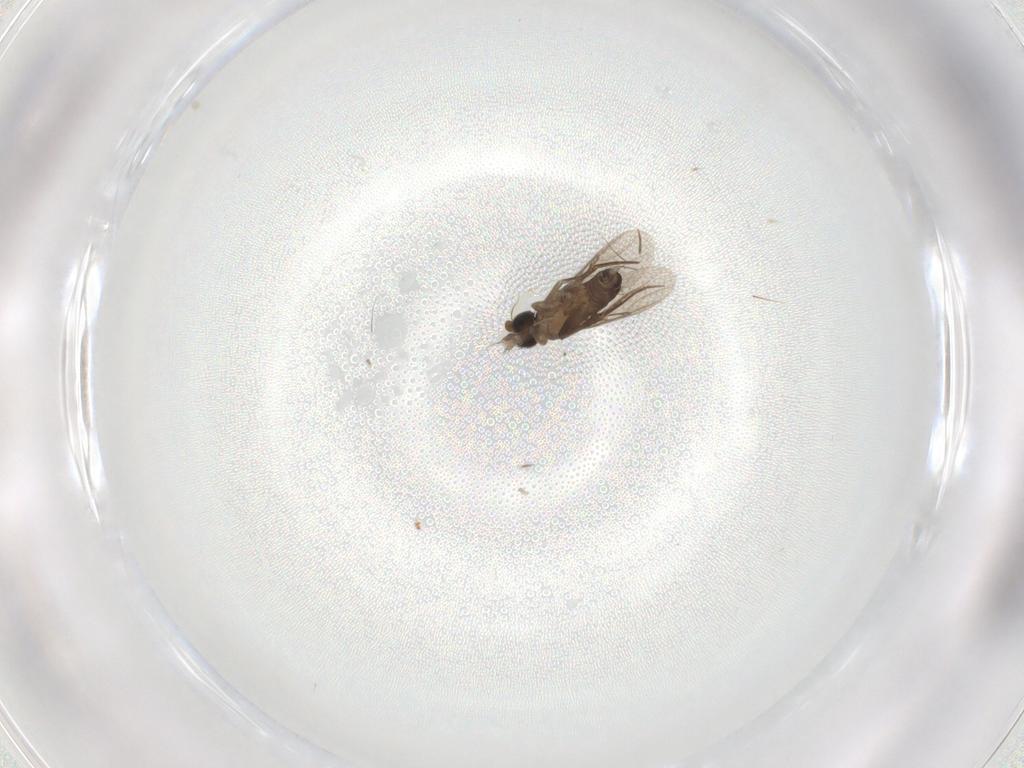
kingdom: Animalia
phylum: Arthropoda
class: Insecta
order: Diptera
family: Phoridae
